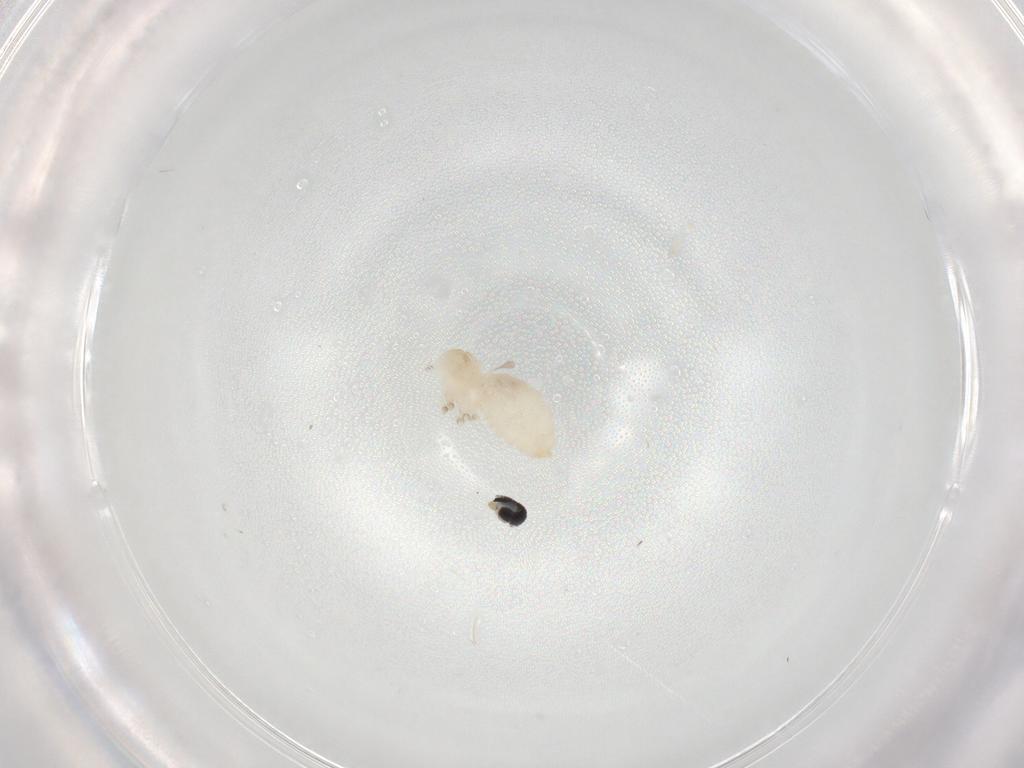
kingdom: Animalia
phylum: Arthropoda
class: Insecta
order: Diptera
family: Cecidomyiidae
